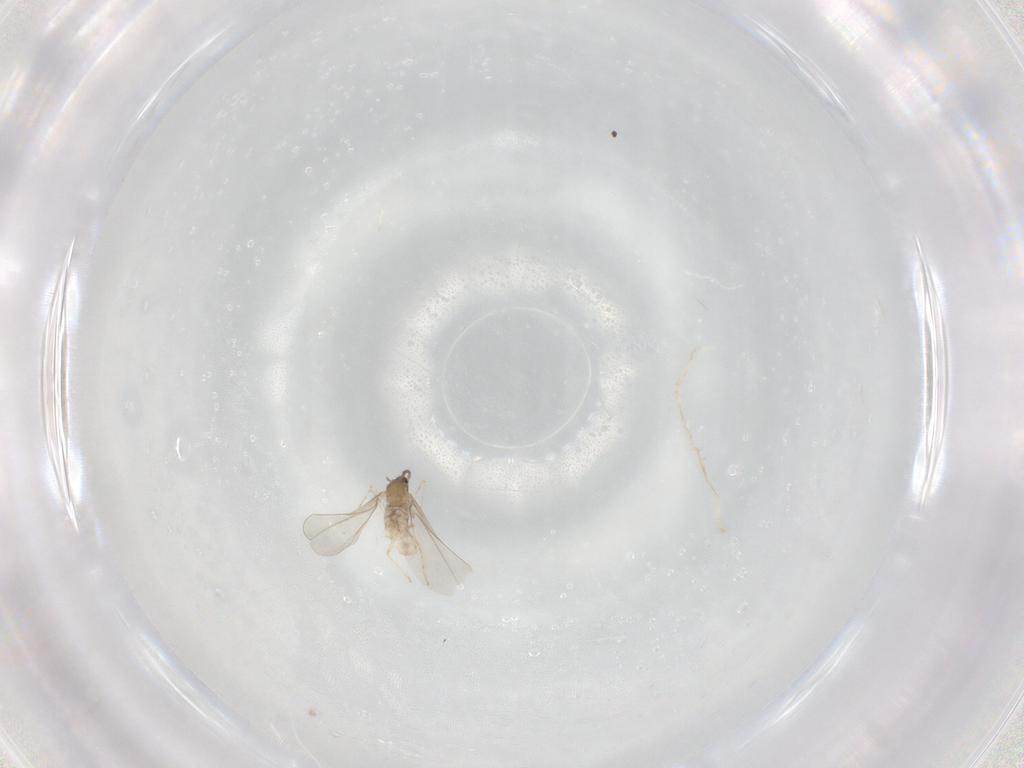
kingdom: Animalia
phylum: Arthropoda
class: Insecta
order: Diptera
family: Cecidomyiidae
